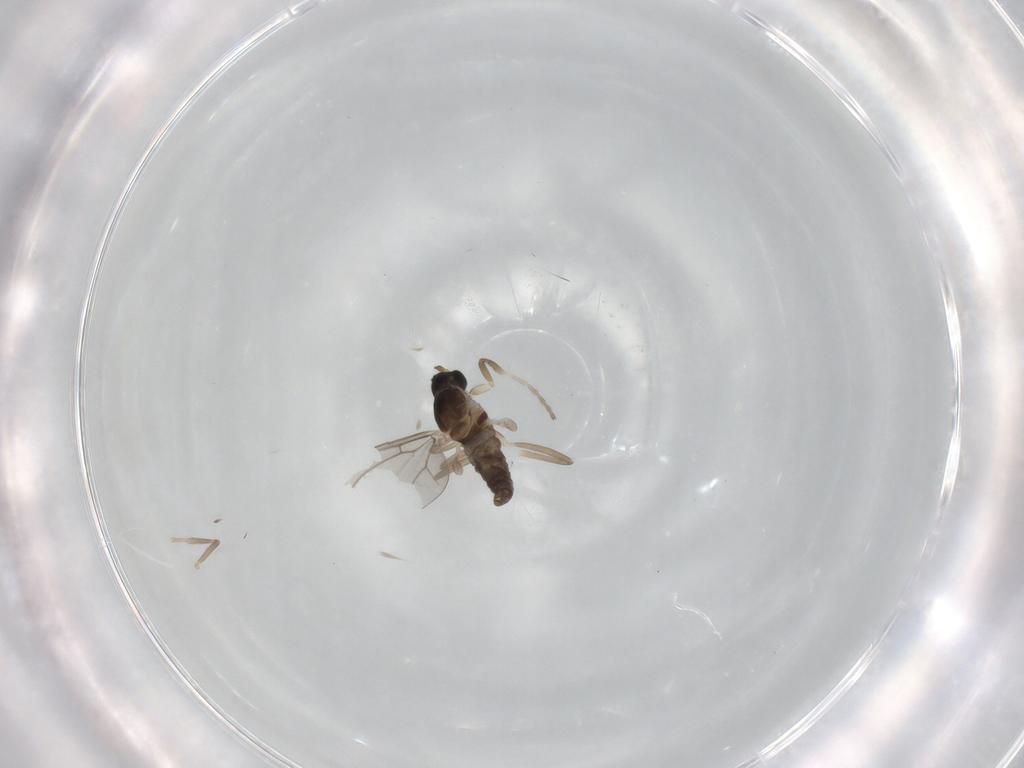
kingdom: Animalia
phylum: Arthropoda
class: Insecta
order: Diptera
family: Cecidomyiidae
